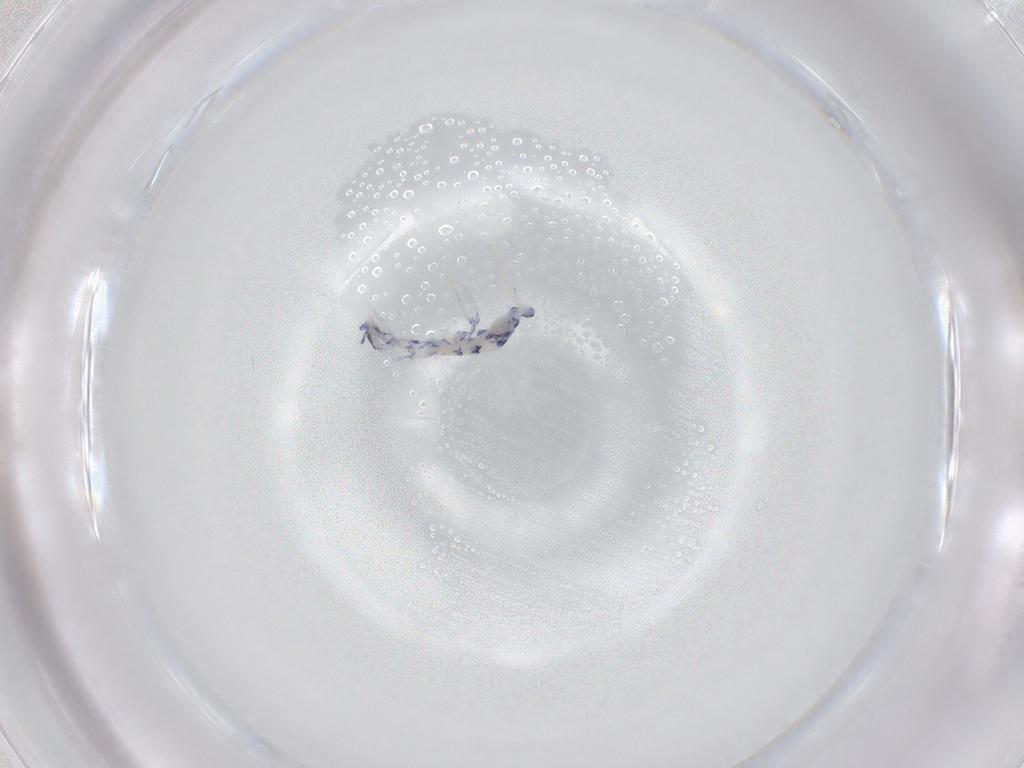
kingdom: Animalia
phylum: Arthropoda
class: Collembola
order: Entomobryomorpha
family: Entomobryidae
